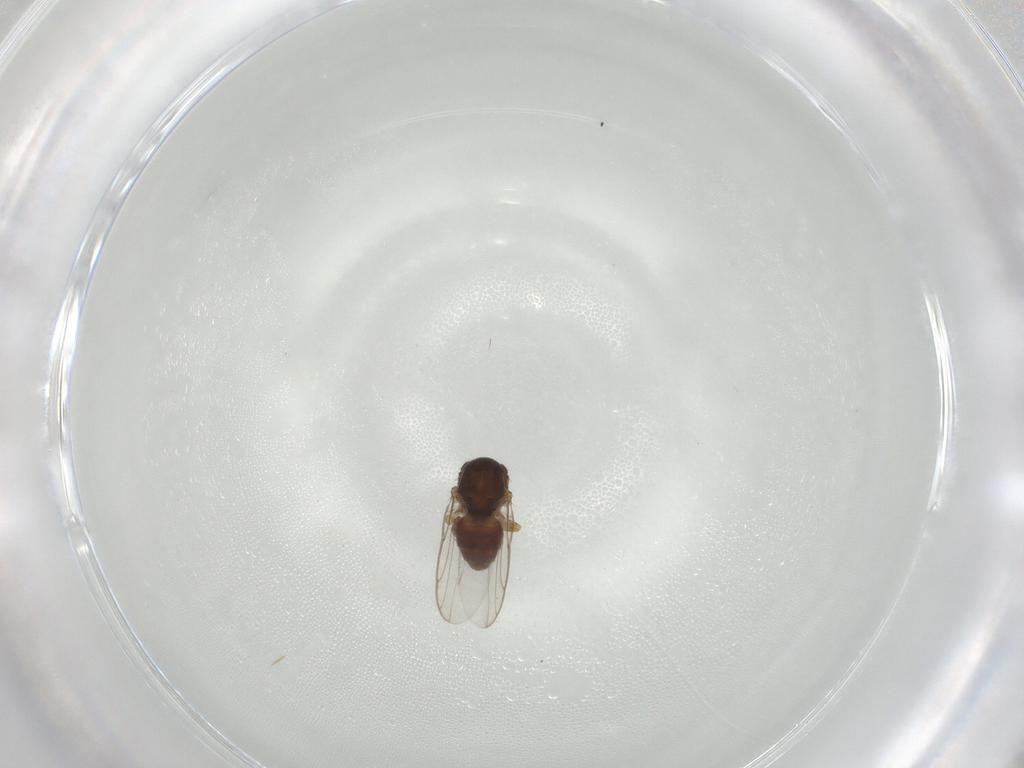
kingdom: Animalia
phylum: Arthropoda
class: Insecta
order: Diptera
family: Chloropidae
